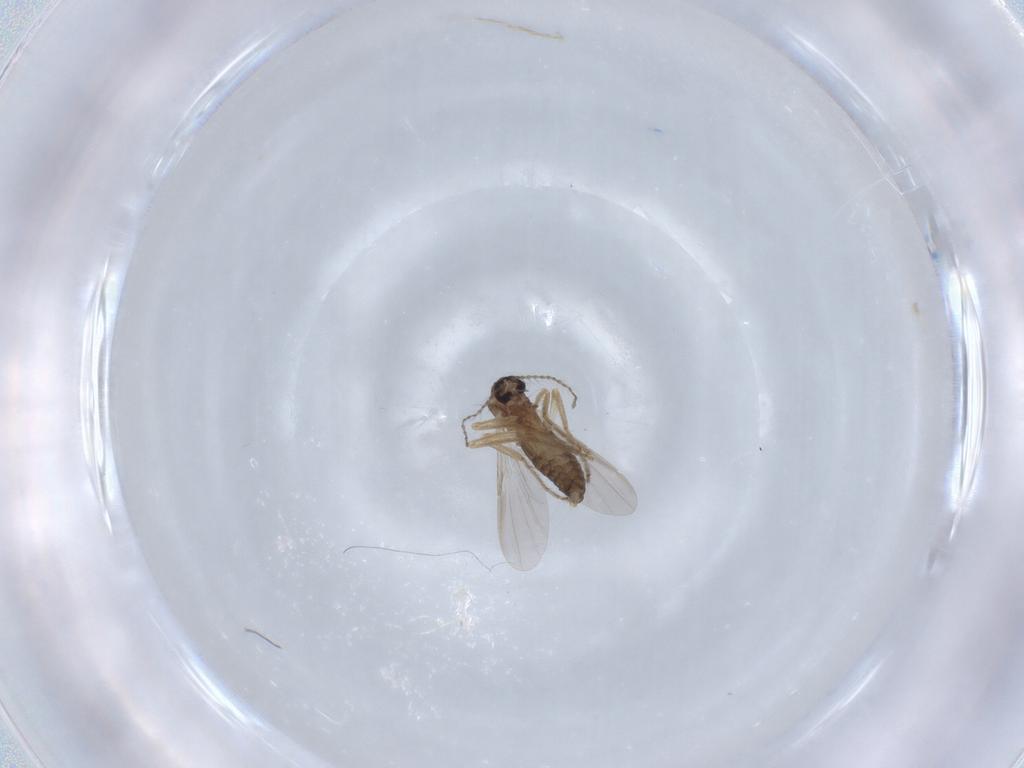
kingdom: Animalia
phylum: Arthropoda
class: Insecta
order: Diptera
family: Ceratopogonidae
